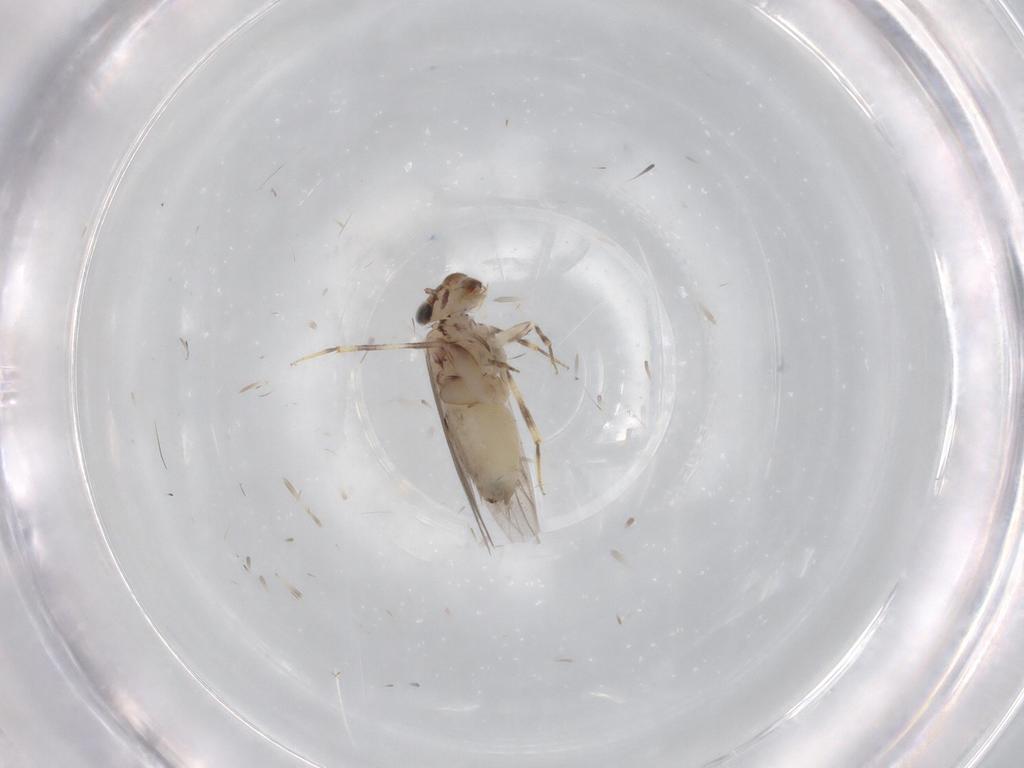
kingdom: Animalia
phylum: Arthropoda
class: Insecta
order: Psocodea
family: Lepidopsocidae
